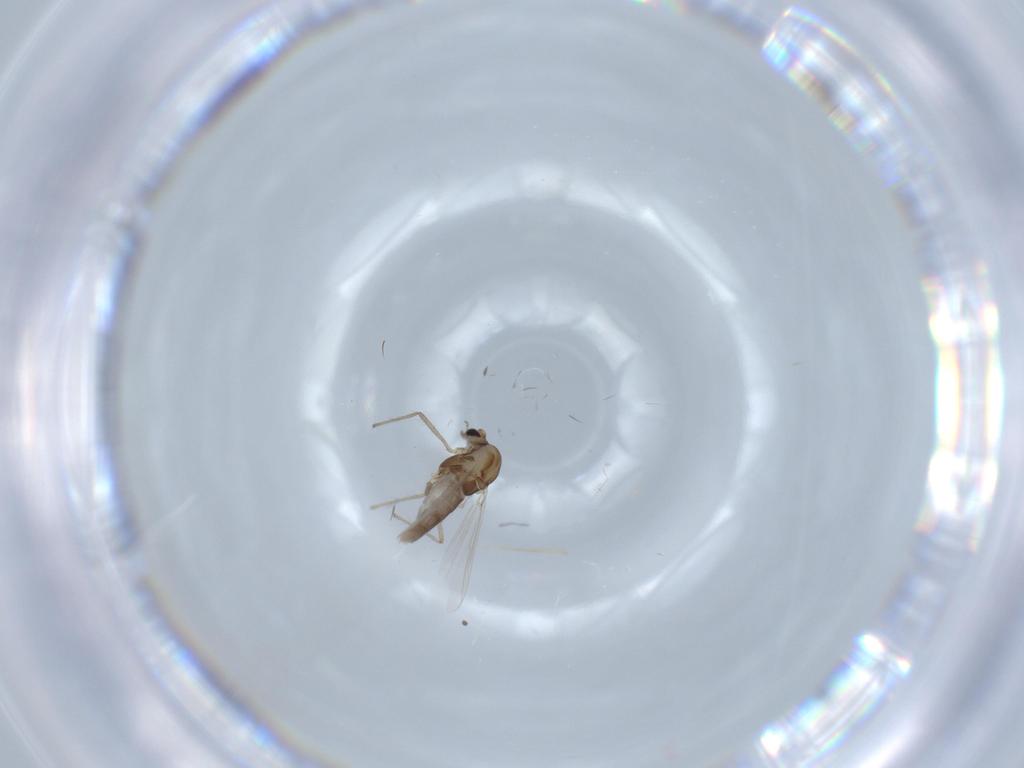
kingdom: Animalia
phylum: Arthropoda
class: Insecta
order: Diptera
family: Chironomidae
